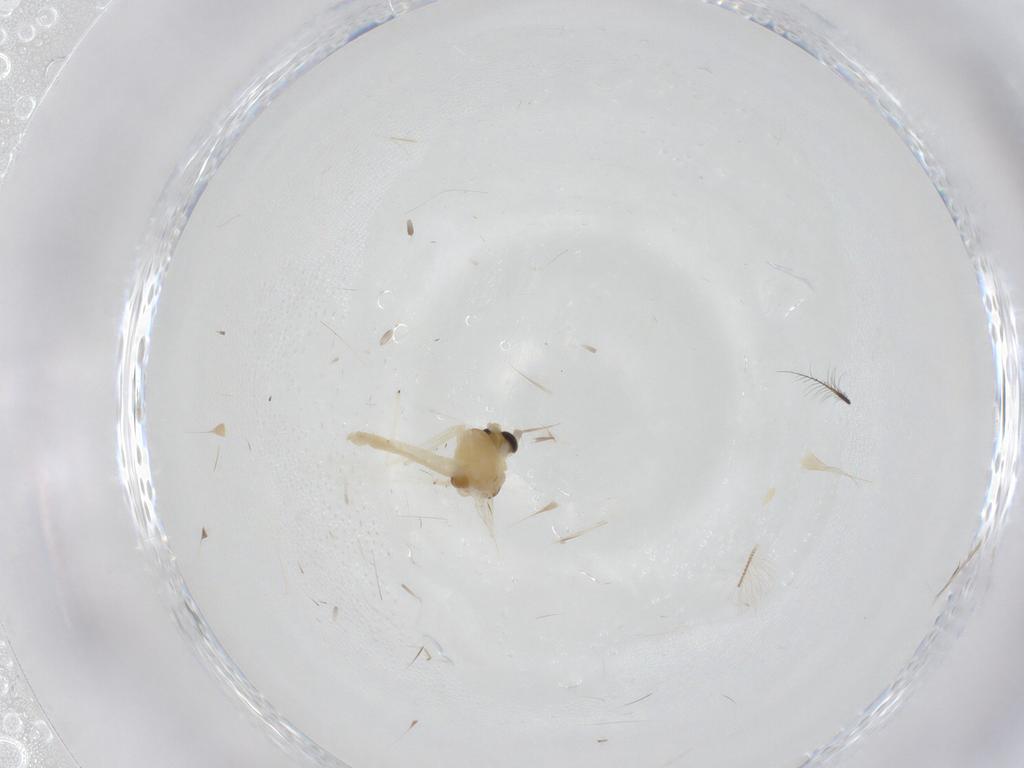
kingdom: Animalia
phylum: Arthropoda
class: Insecta
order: Diptera
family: Chironomidae
